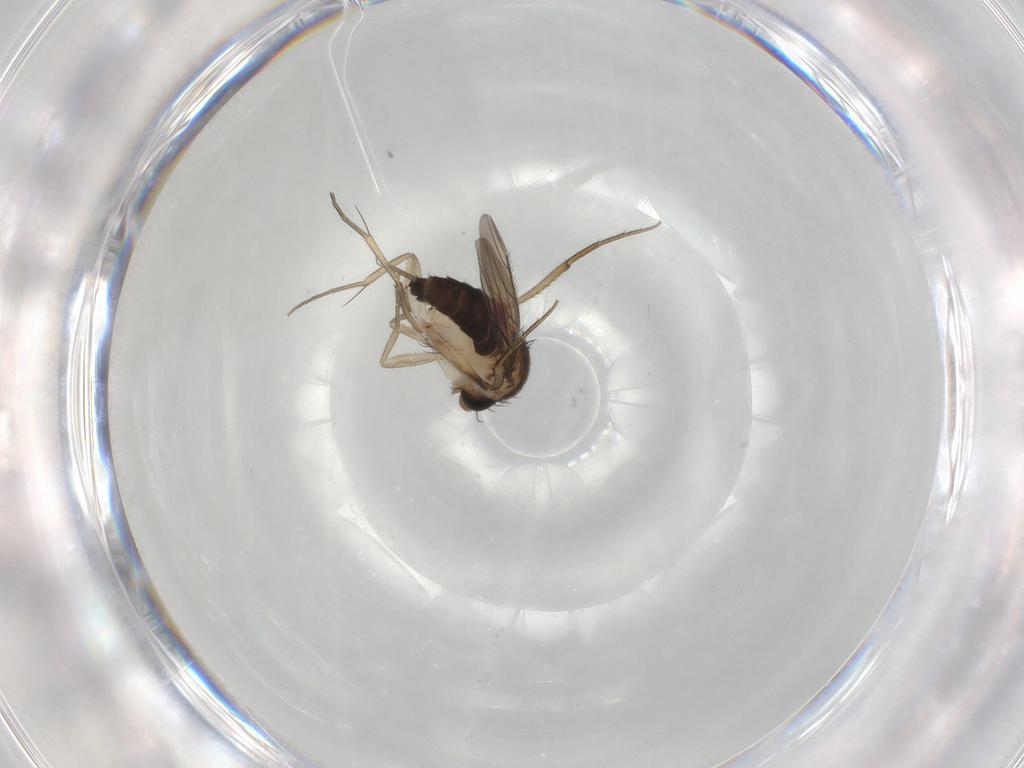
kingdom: Animalia
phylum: Arthropoda
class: Insecta
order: Diptera
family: Phoridae
